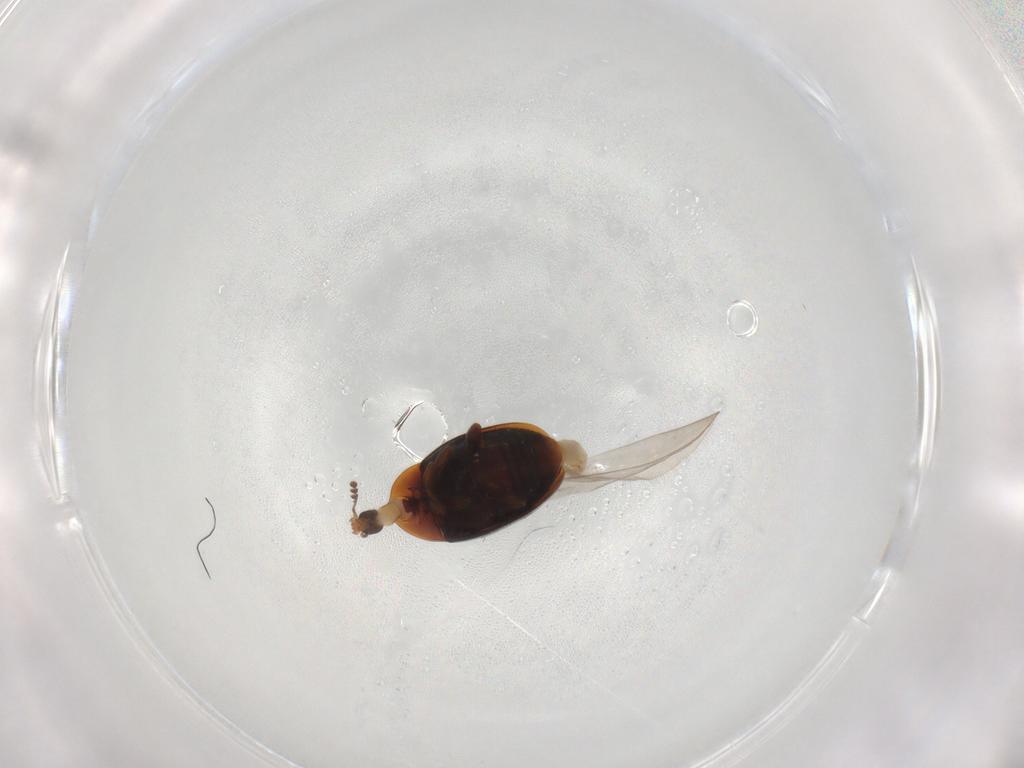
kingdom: Animalia
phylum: Arthropoda
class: Insecta
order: Coleoptera
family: Corylophidae
